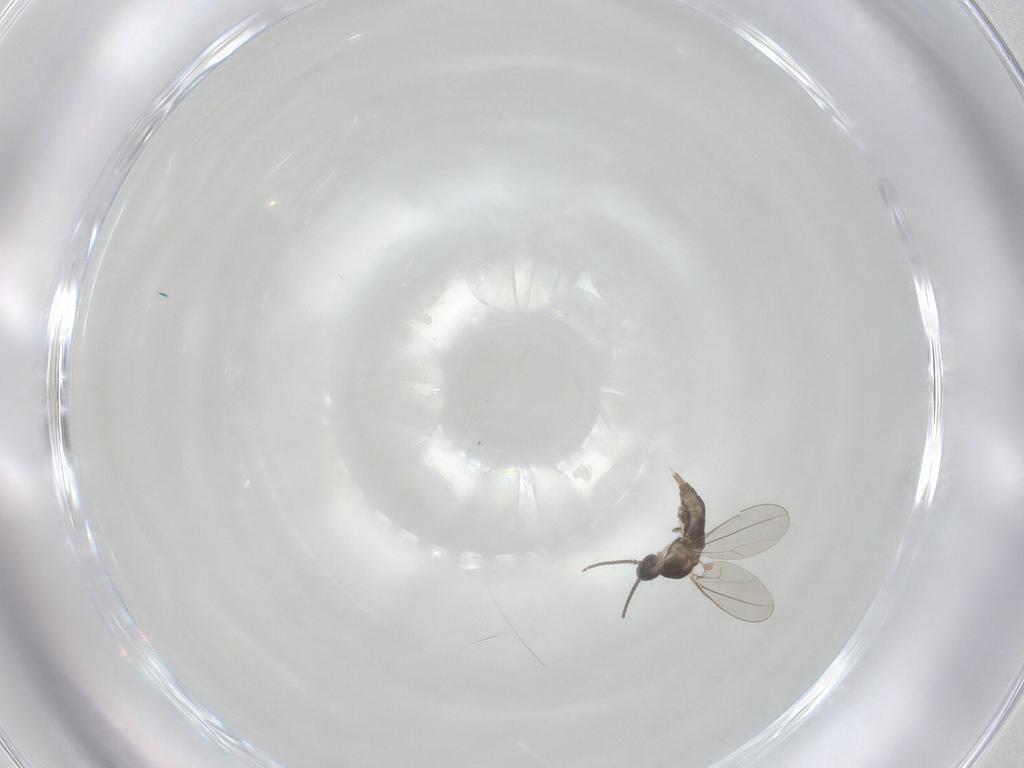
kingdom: Animalia
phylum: Arthropoda
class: Insecta
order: Diptera
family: Cecidomyiidae
